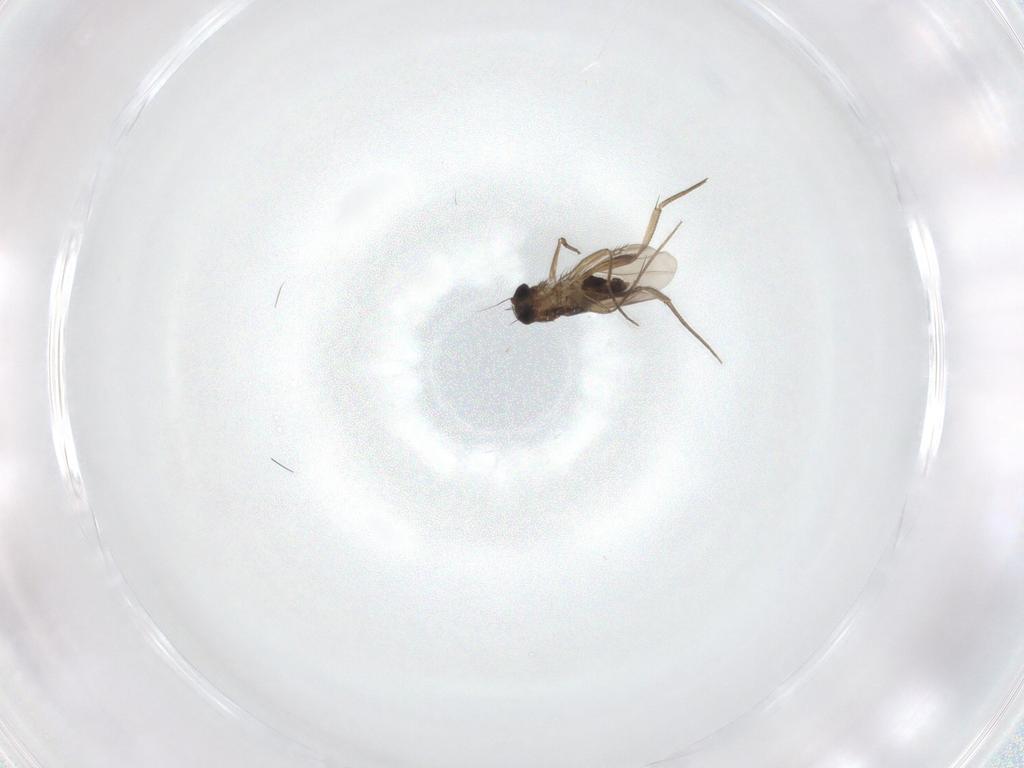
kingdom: Animalia
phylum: Arthropoda
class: Insecta
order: Diptera
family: Phoridae
